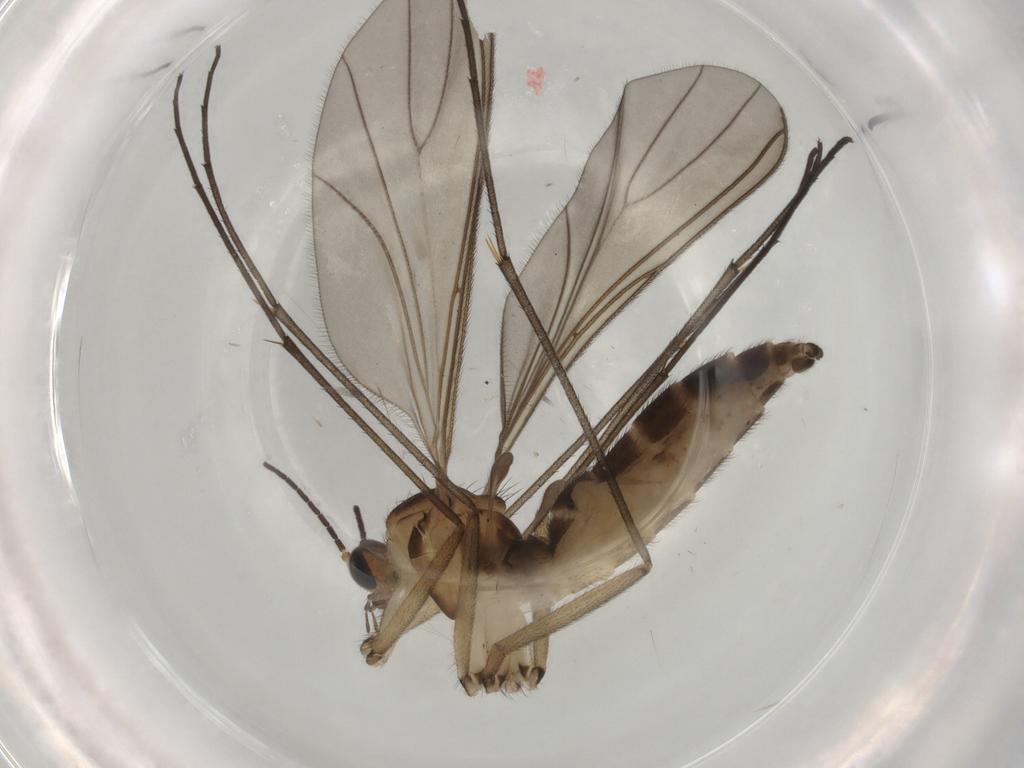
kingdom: Animalia
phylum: Arthropoda
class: Insecta
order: Diptera
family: Sciaridae
